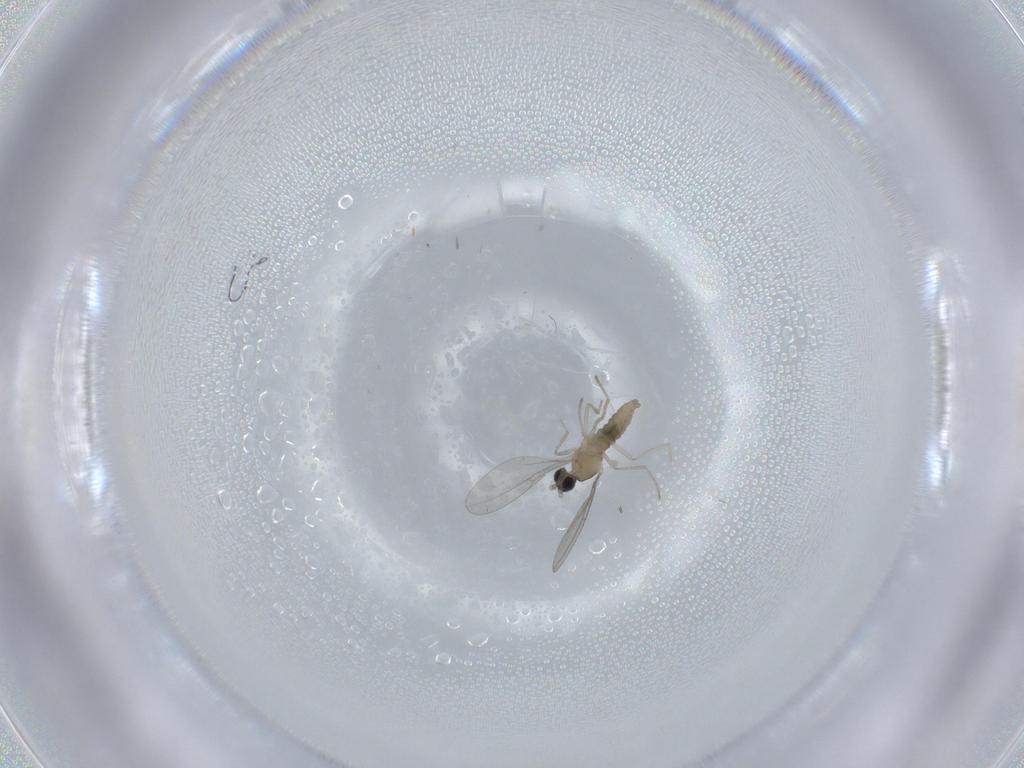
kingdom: Animalia
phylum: Arthropoda
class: Insecta
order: Diptera
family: Cecidomyiidae
